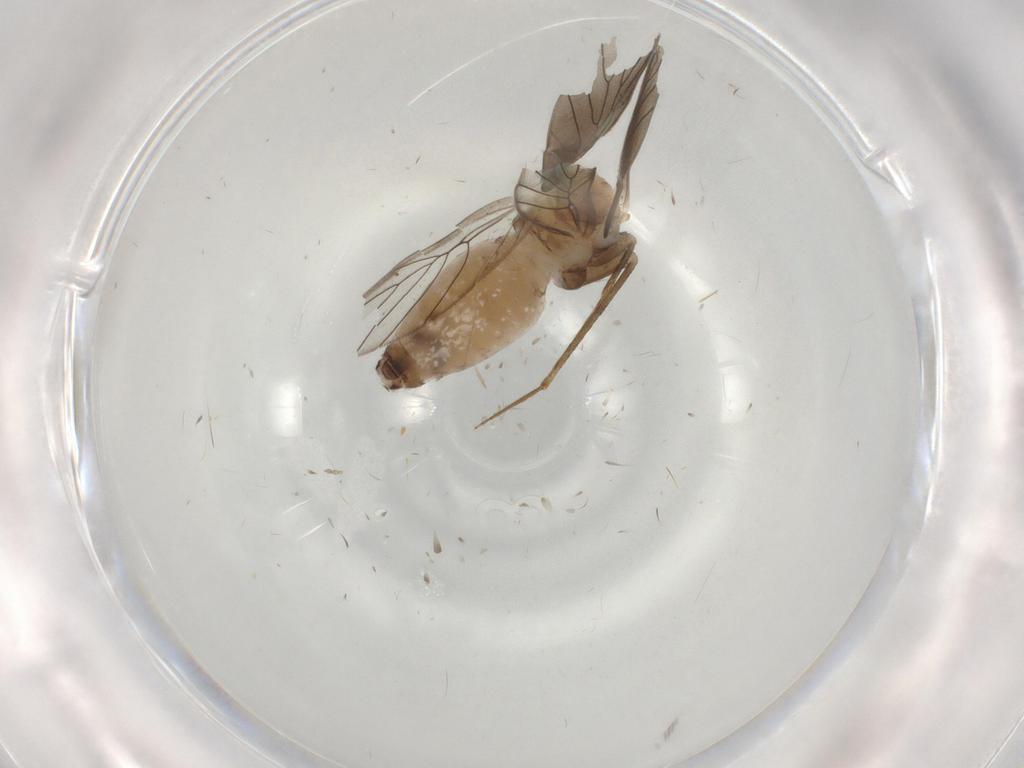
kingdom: Animalia
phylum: Arthropoda
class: Insecta
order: Psocodea
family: Lepidopsocidae
